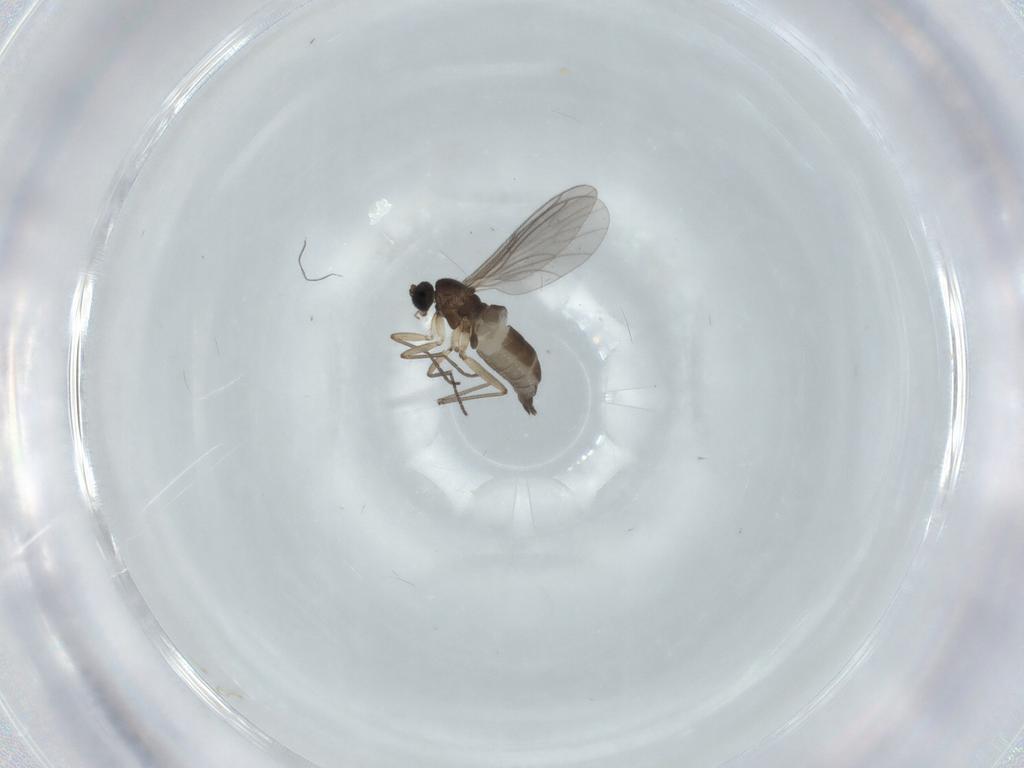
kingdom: Animalia
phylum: Arthropoda
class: Insecta
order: Diptera
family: Sciaridae
